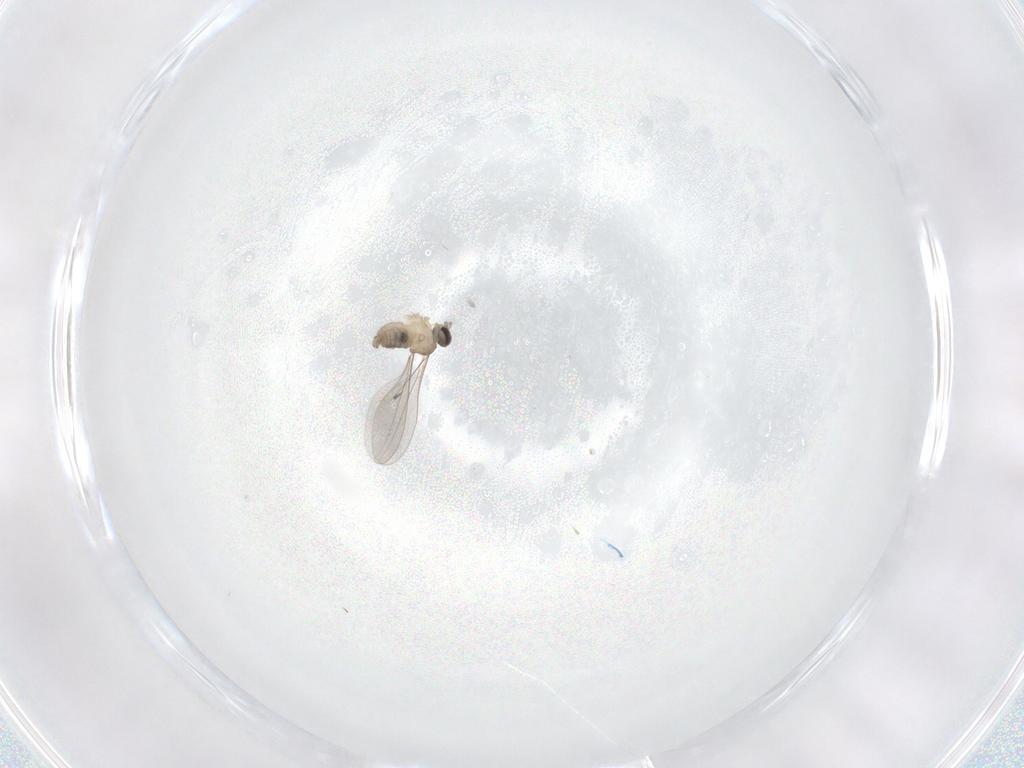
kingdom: Animalia
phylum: Arthropoda
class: Insecta
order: Diptera
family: Cecidomyiidae
